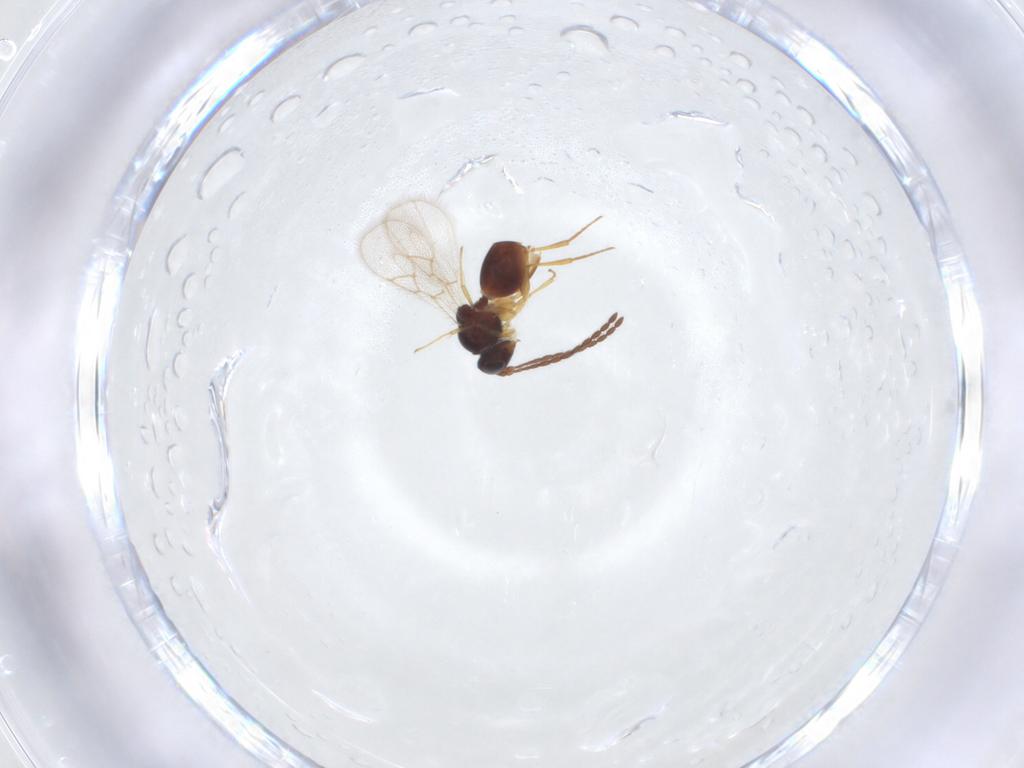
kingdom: Animalia
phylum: Arthropoda
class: Insecta
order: Hymenoptera
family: Figitidae
